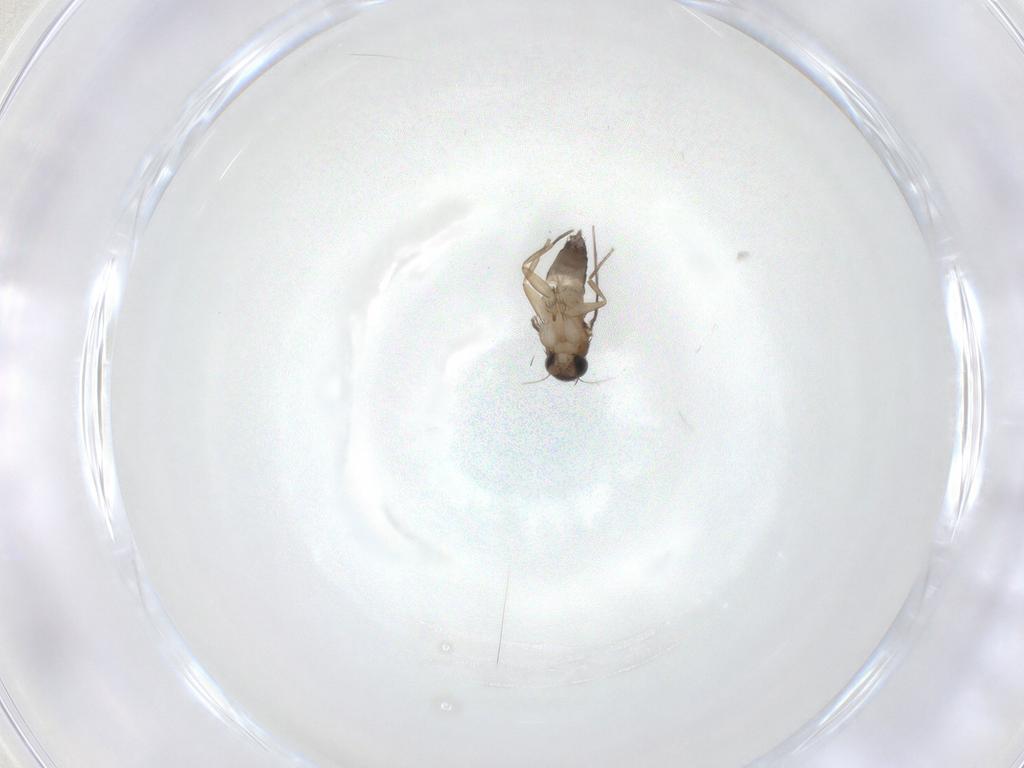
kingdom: Animalia
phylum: Arthropoda
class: Insecta
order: Diptera
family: Phoridae
